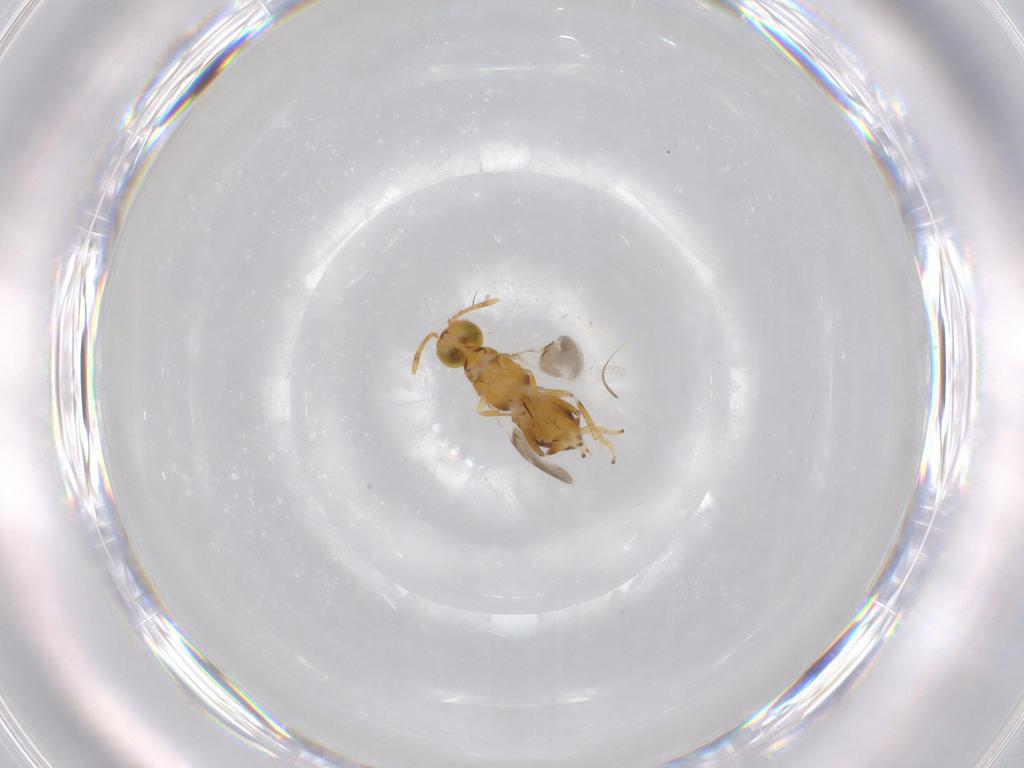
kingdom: Animalia
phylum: Arthropoda
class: Insecta
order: Hymenoptera
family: Encyrtidae
